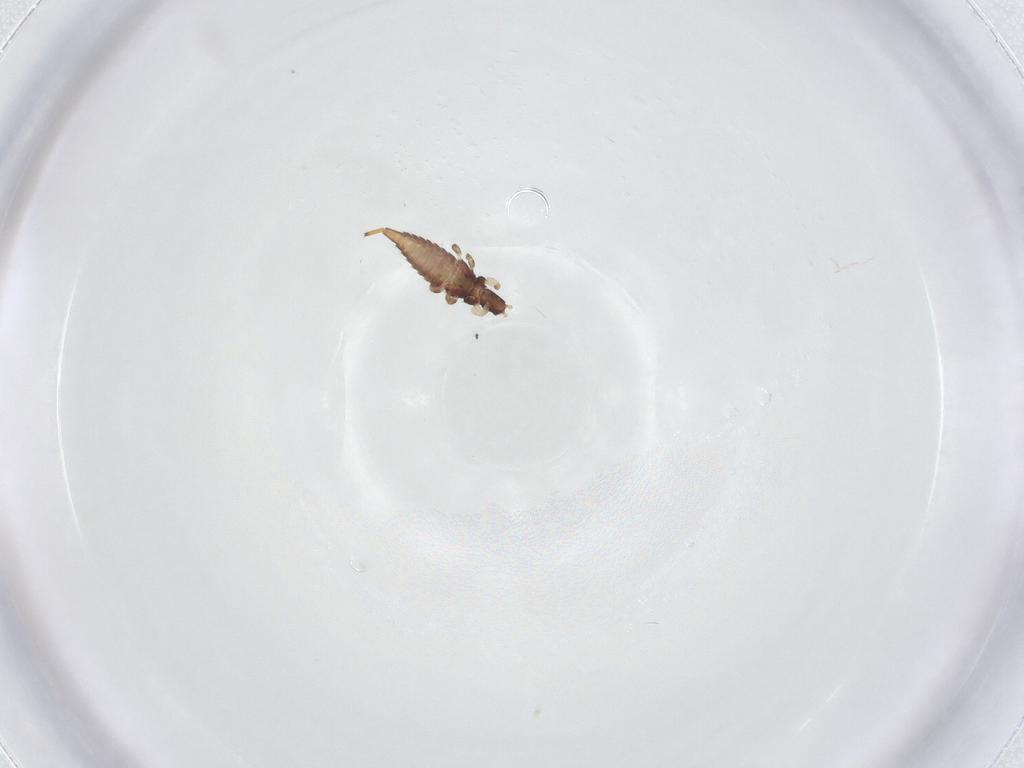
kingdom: Animalia
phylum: Arthropoda
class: Insecta
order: Thysanoptera
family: Phlaeothripidae
